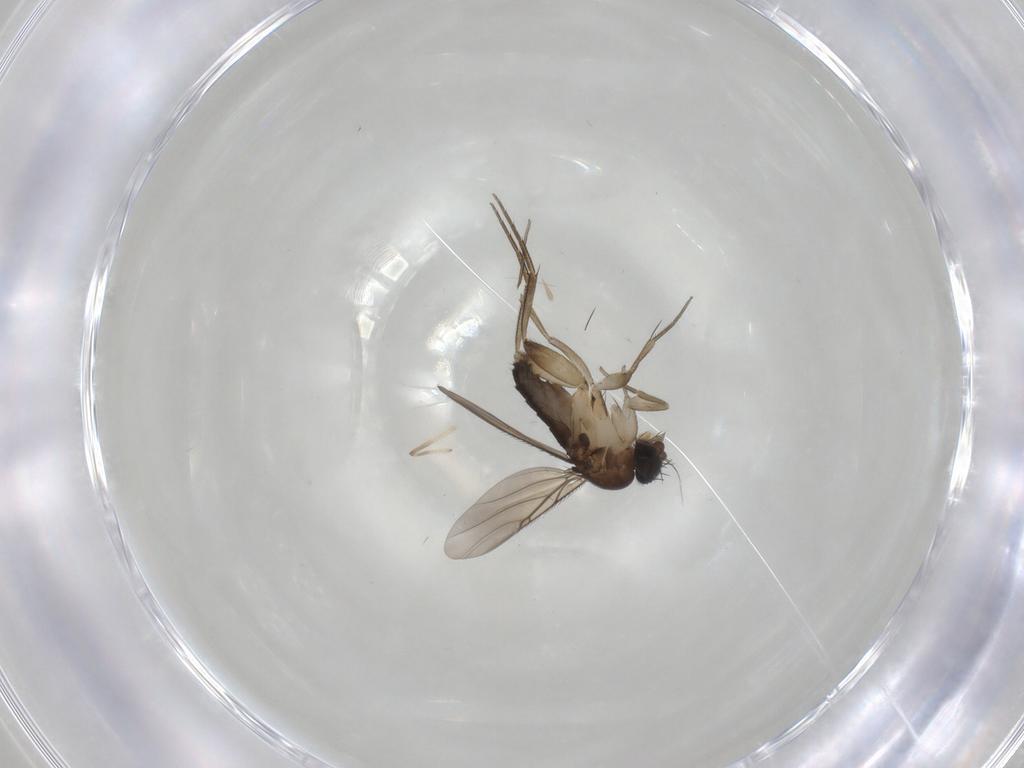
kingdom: Animalia
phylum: Arthropoda
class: Insecta
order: Diptera
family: Phoridae
